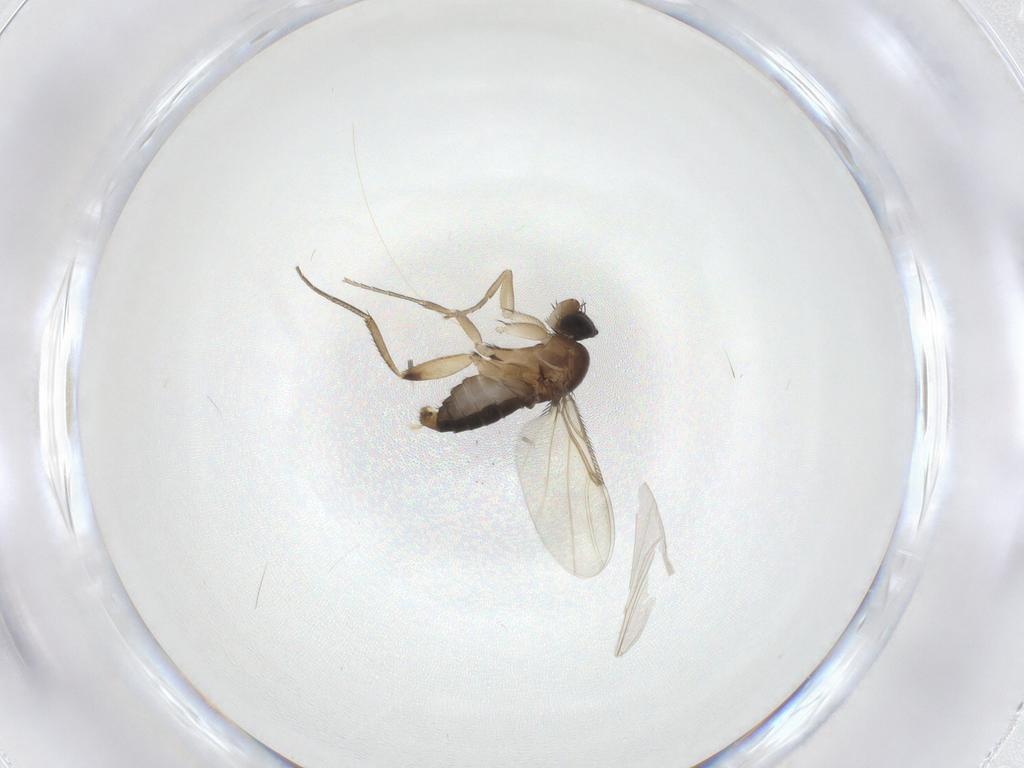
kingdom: Animalia
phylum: Arthropoda
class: Insecta
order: Diptera
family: Phoridae
